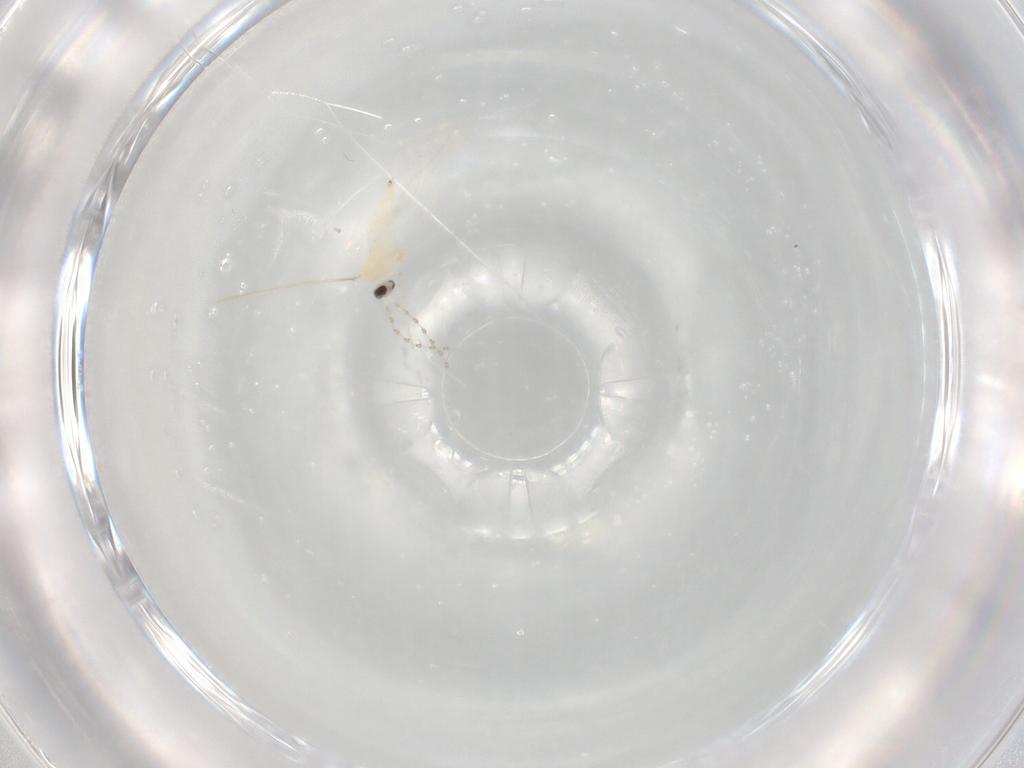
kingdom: Animalia
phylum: Arthropoda
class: Insecta
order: Diptera
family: Cecidomyiidae
